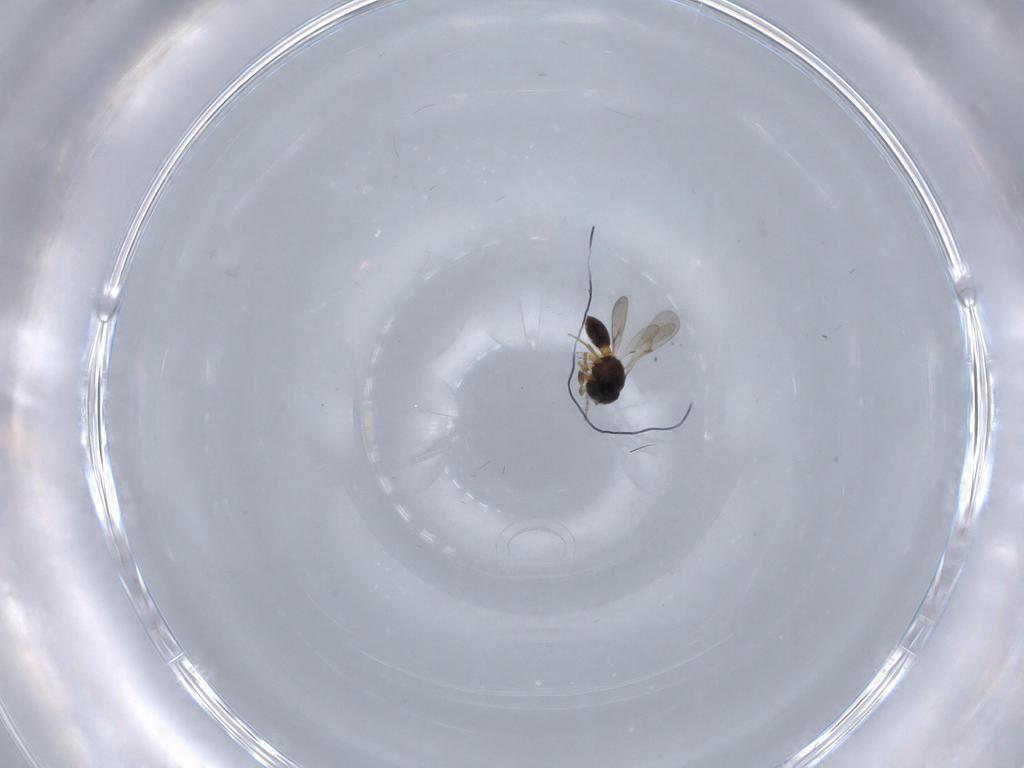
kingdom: Animalia
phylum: Arthropoda
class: Insecta
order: Hymenoptera
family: Scelionidae
